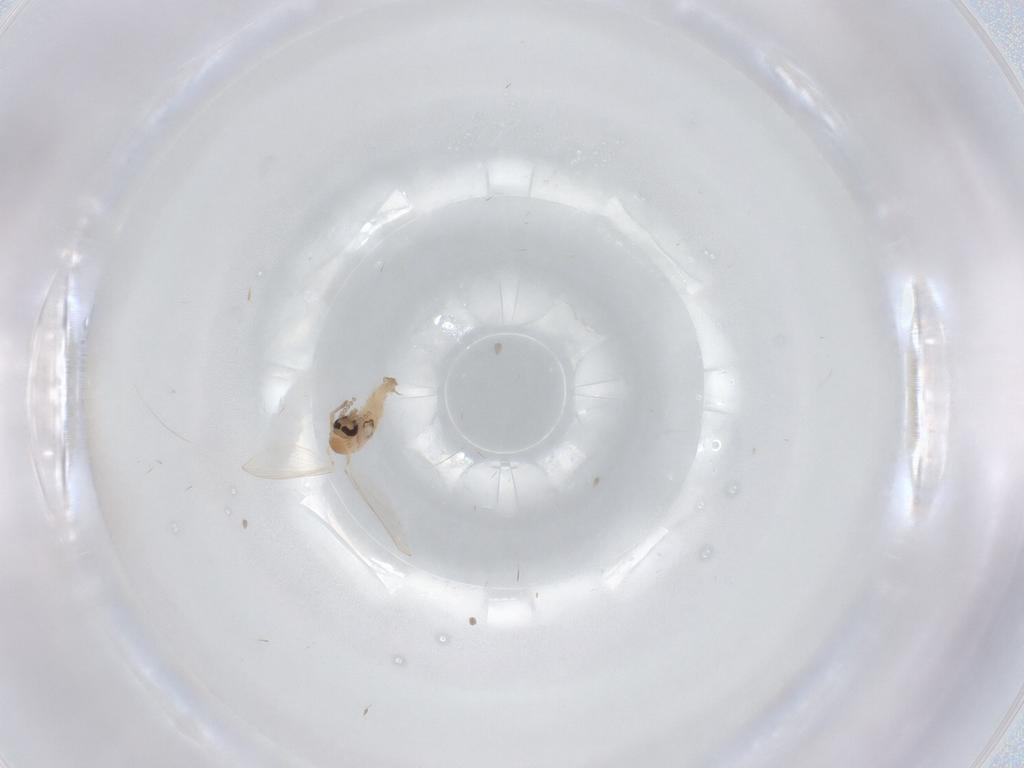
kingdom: Animalia
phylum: Arthropoda
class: Insecta
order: Diptera
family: Psychodidae
